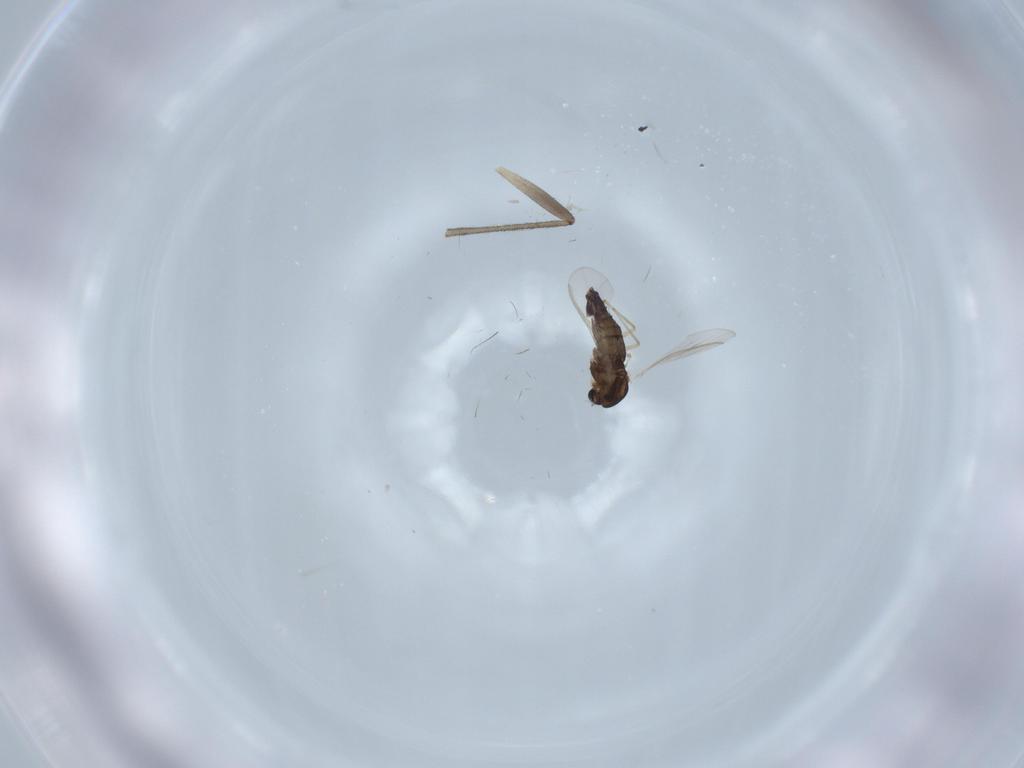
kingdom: Animalia
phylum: Arthropoda
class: Insecta
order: Diptera
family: Chironomidae
